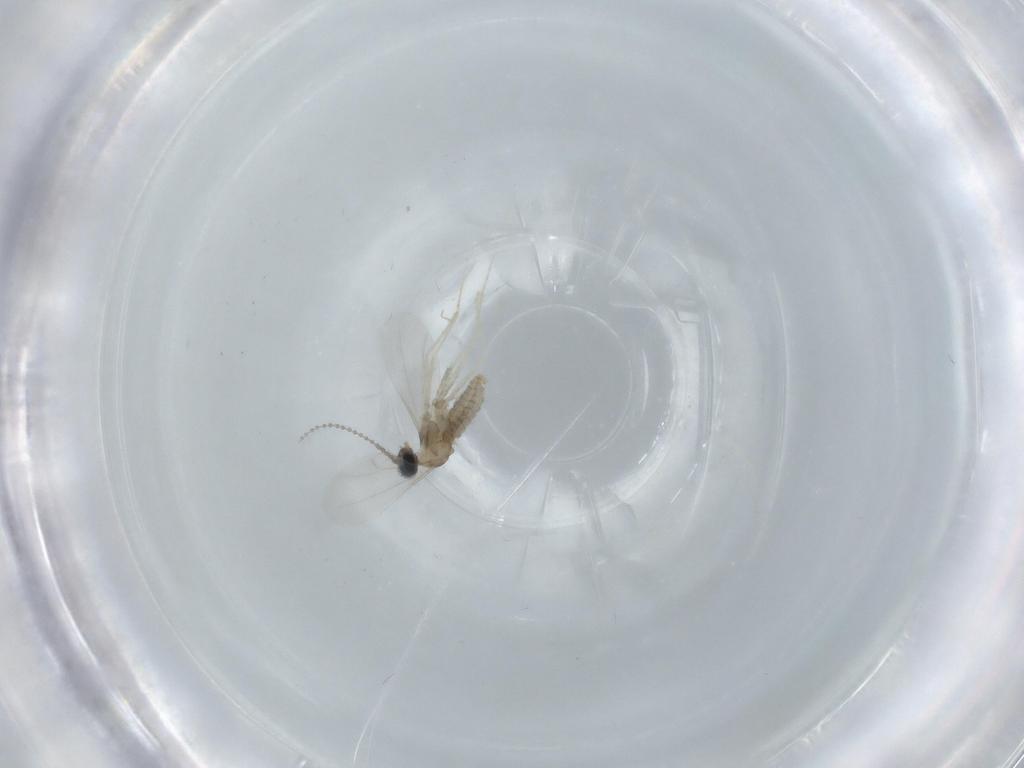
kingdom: Animalia
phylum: Arthropoda
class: Insecta
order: Diptera
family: Cecidomyiidae
